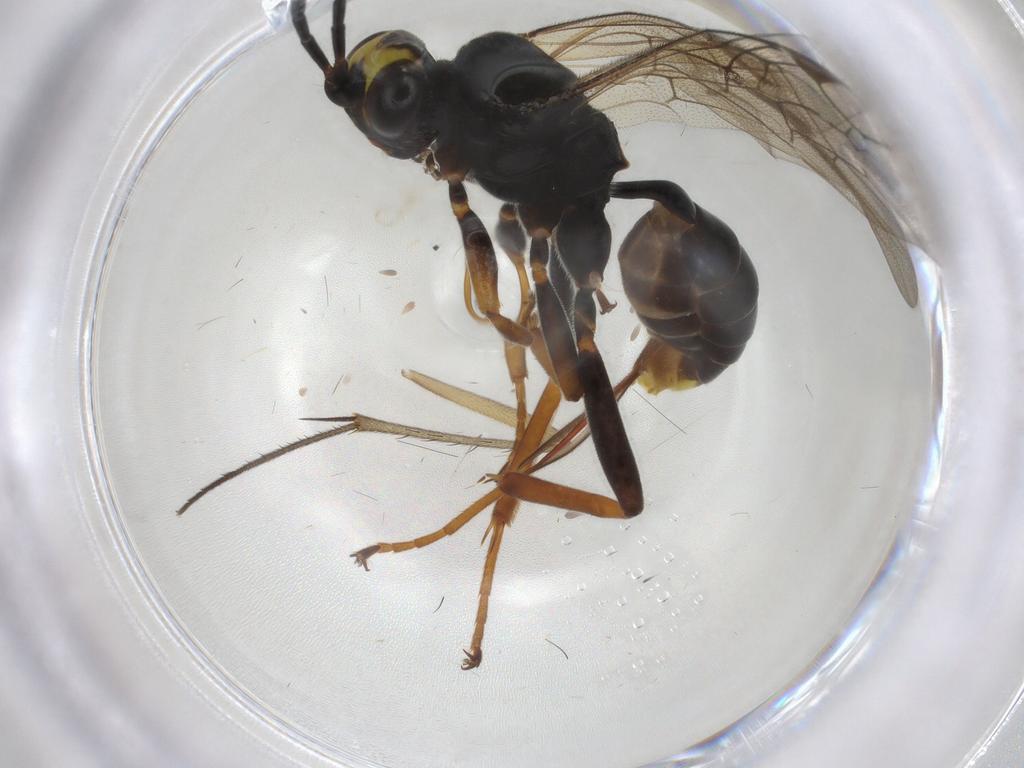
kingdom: Animalia
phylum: Arthropoda
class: Insecta
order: Hymenoptera
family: Ichneumonidae
